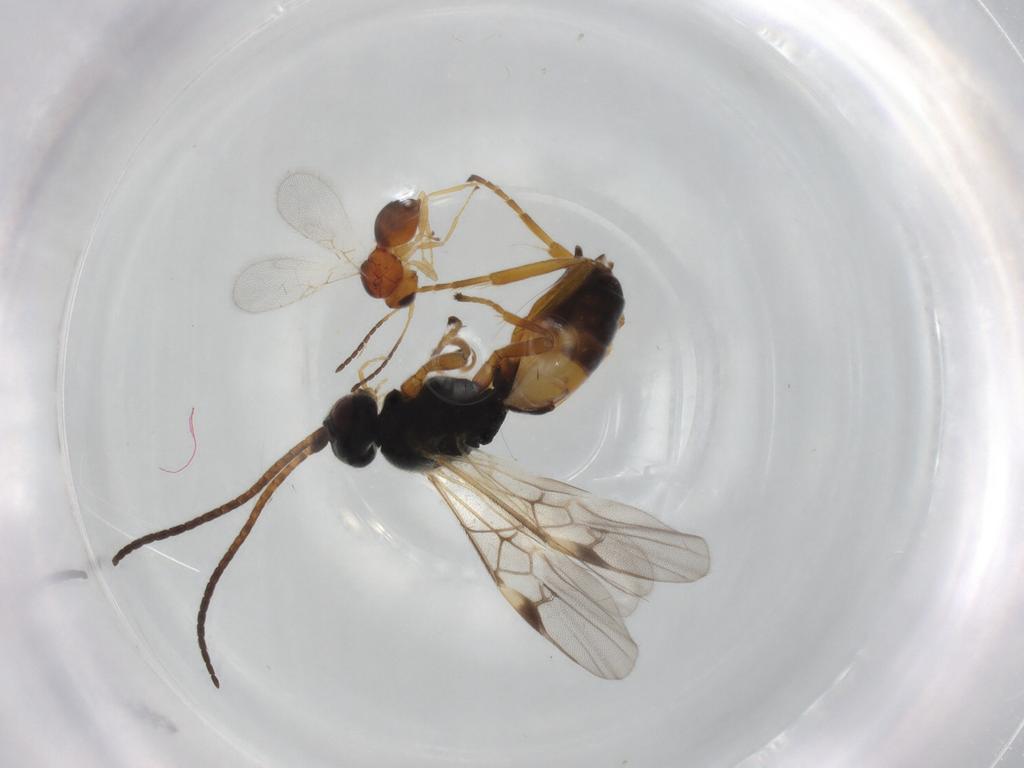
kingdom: Animalia
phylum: Arthropoda
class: Insecta
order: Hymenoptera
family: Figitidae
